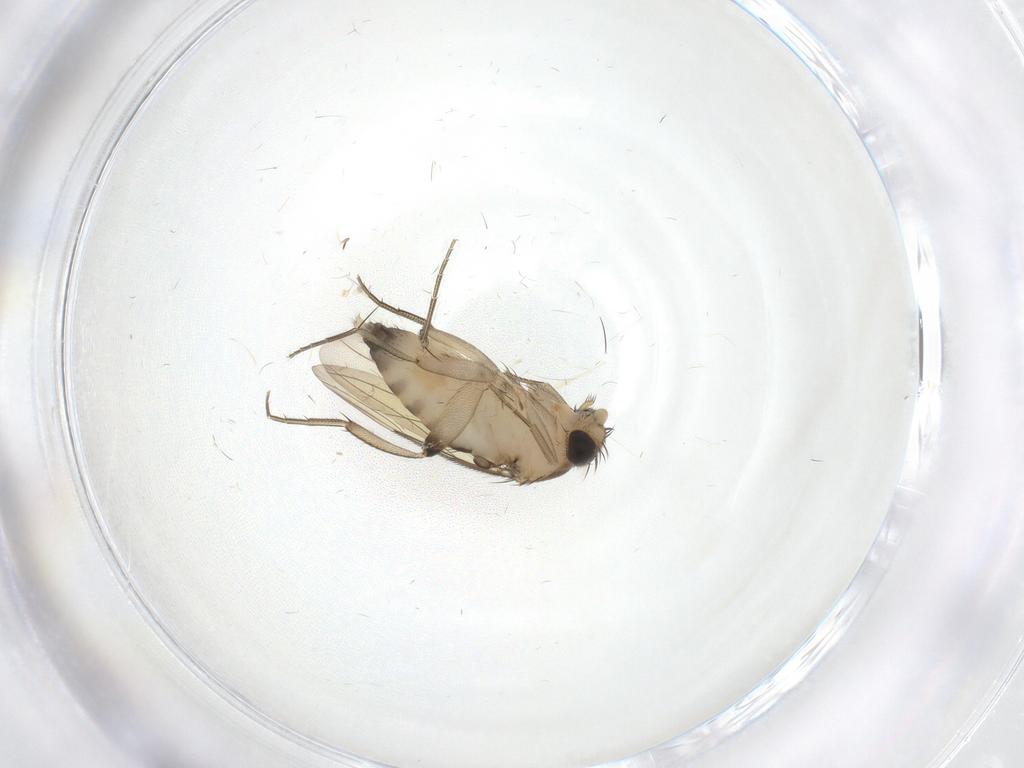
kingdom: Animalia
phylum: Arthropoda
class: Insecta
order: Diptera
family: Phoridae
